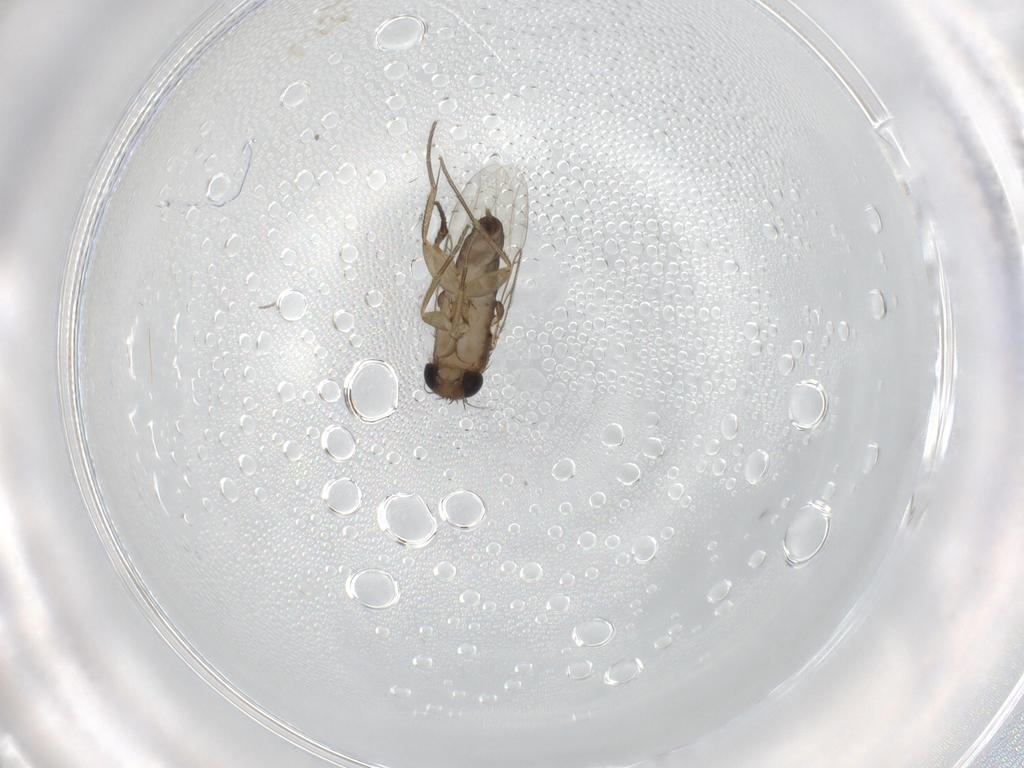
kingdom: Animalia
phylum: Arthropoda
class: Insecta
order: Diptera
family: Phoridae
